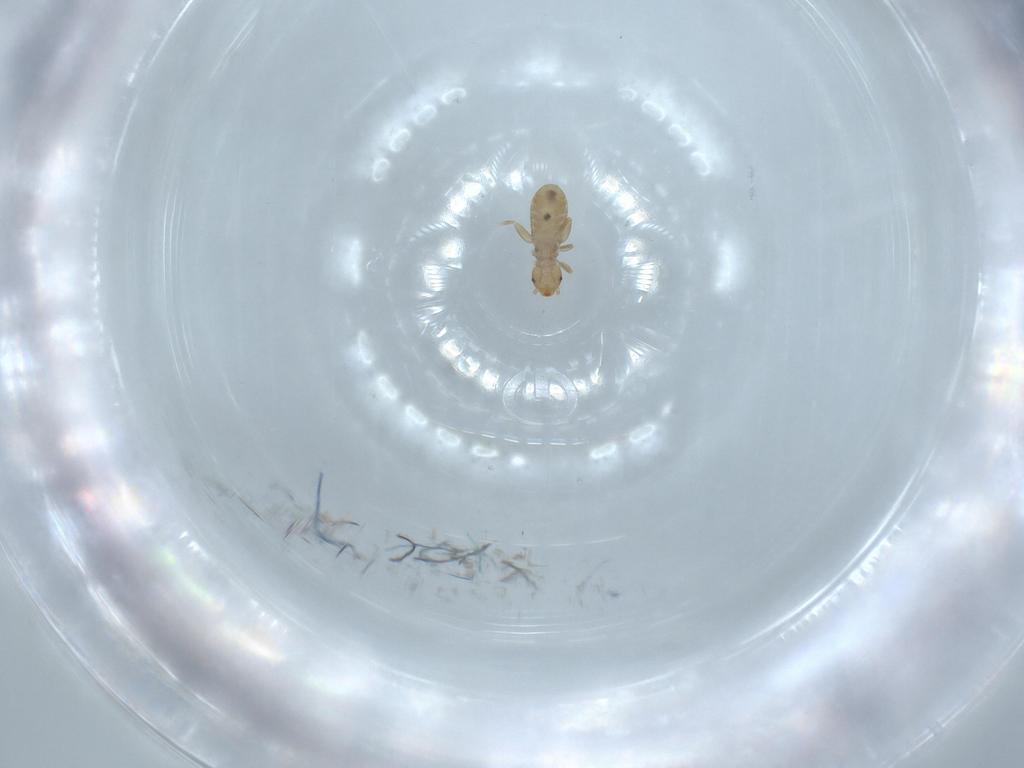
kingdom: Animalia
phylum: Arthropoda
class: Insecta
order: Psocodea
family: Liposcelididae
